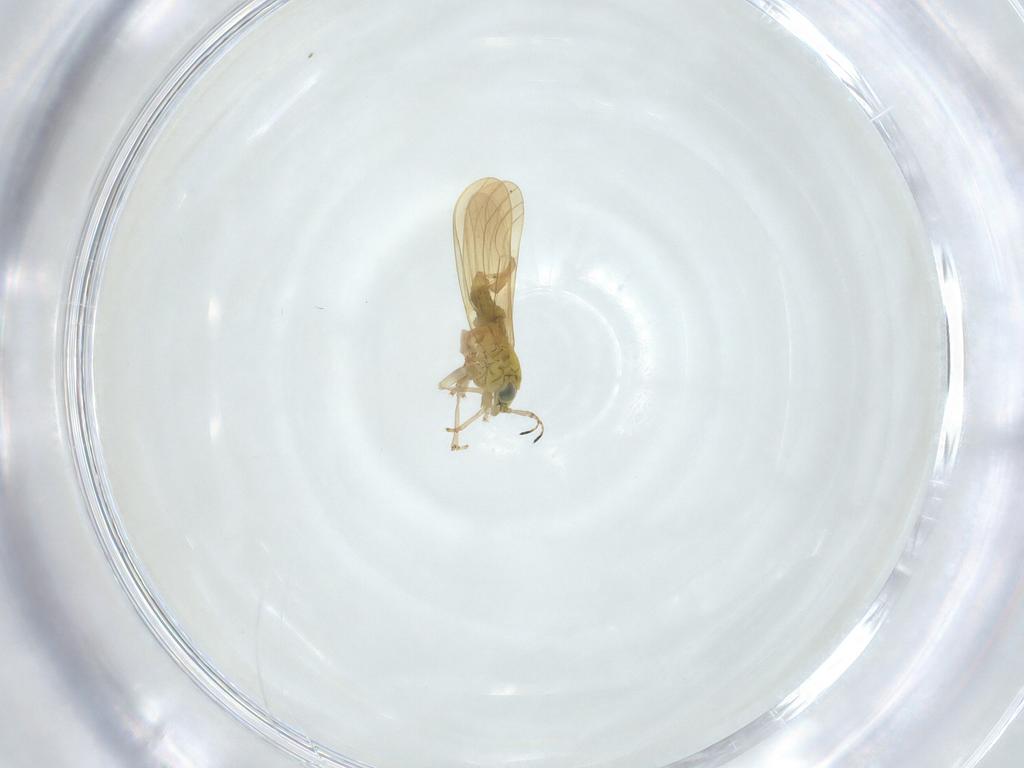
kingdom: Animalia
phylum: Arthropoda
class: Insecta
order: Hemiptera
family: Aphalaridae
